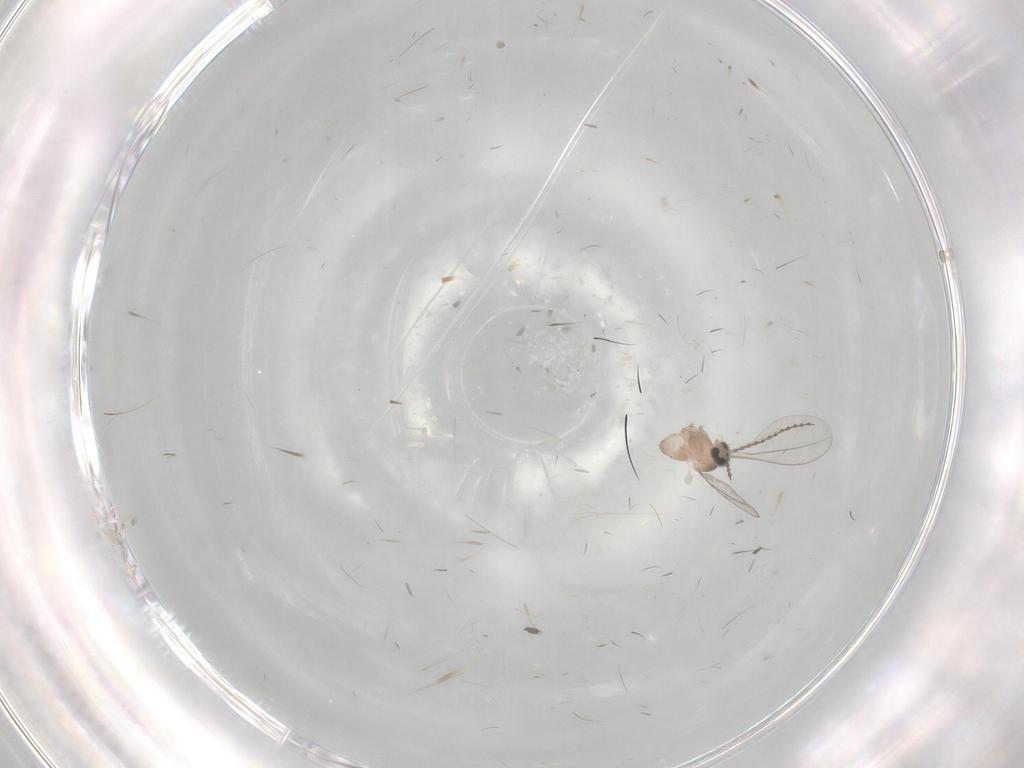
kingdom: Animalia
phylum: Arthropoda
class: Insecta
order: Diptera
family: Cecidomyiidae
